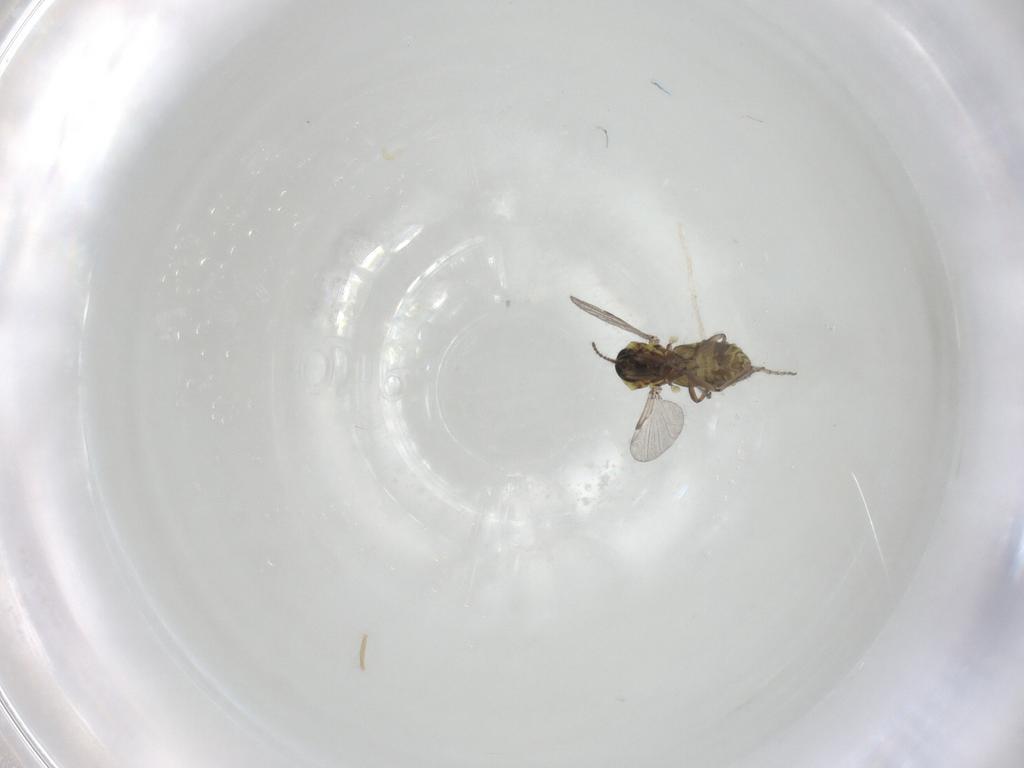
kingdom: Animalia
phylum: Arthropoda
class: Insecta
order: Diptera
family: Ceratopogonidae
